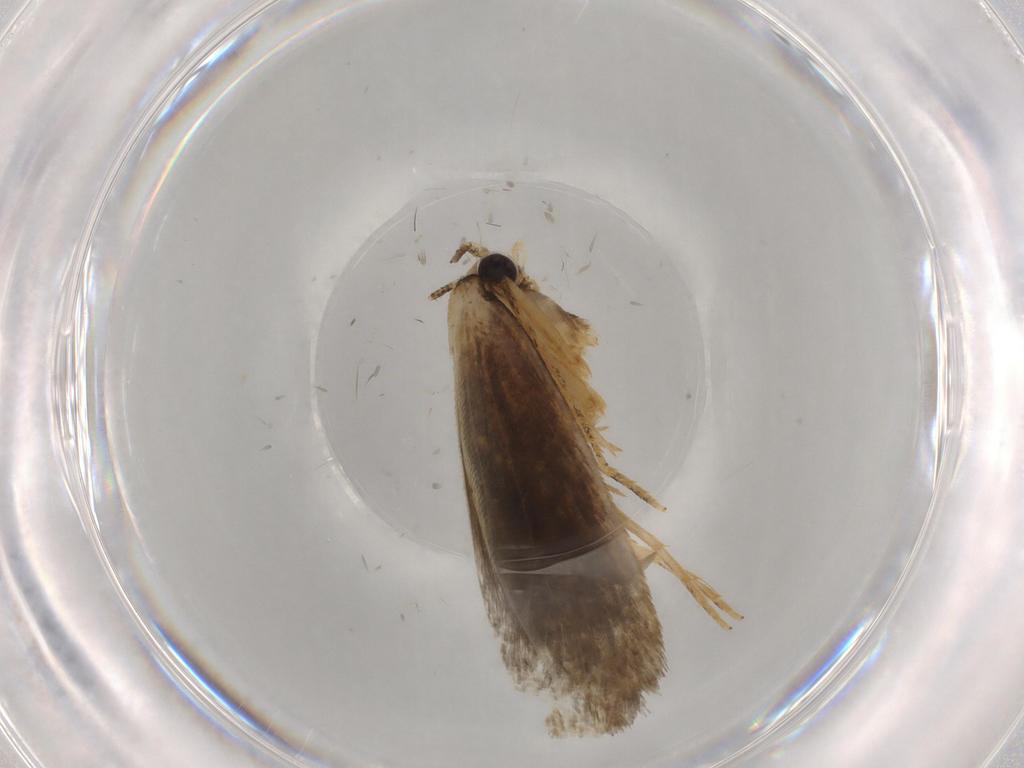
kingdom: Animalia
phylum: Arthropoda
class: Insecta
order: Lepidoptera
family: Tineidae
